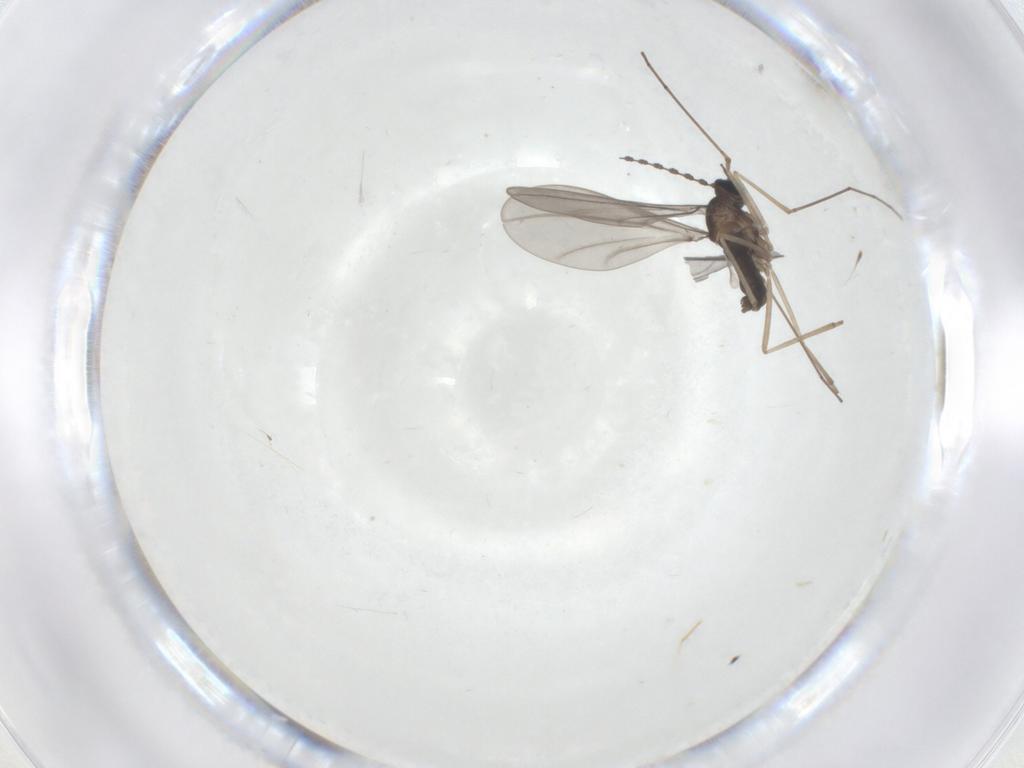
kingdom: Animalia
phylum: Arthropoda
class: Insecta
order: Diptera
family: Cecidomyiidae
